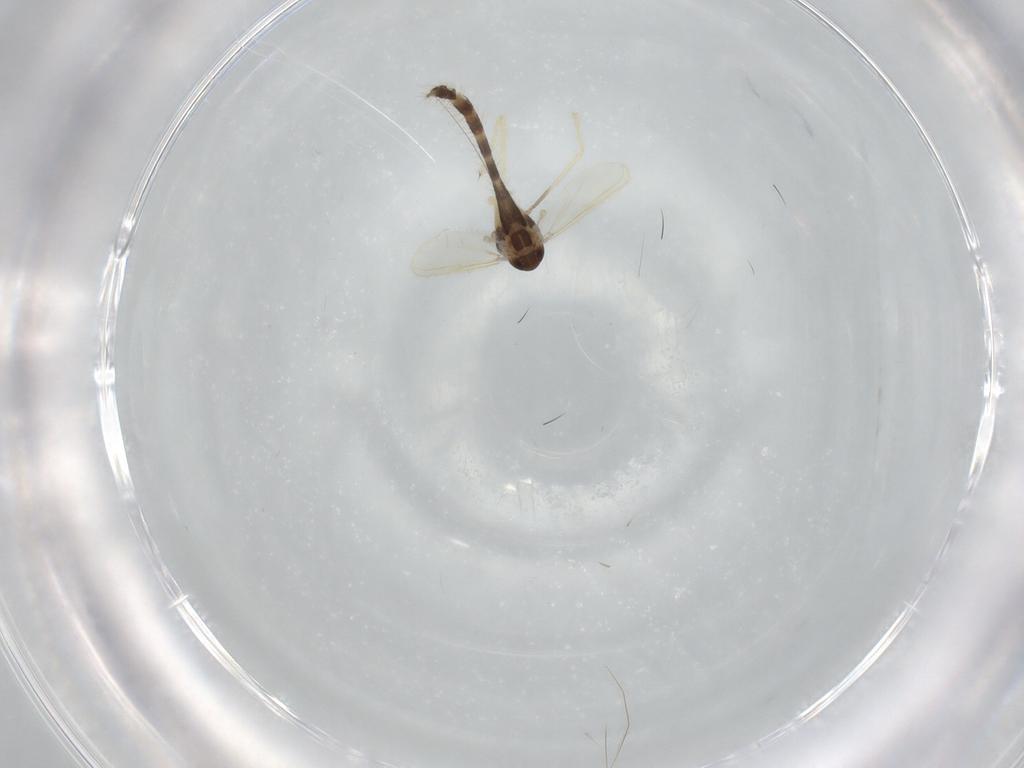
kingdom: Animalia
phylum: Arthropoda
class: Insecta
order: Diptera
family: Chironomidae
